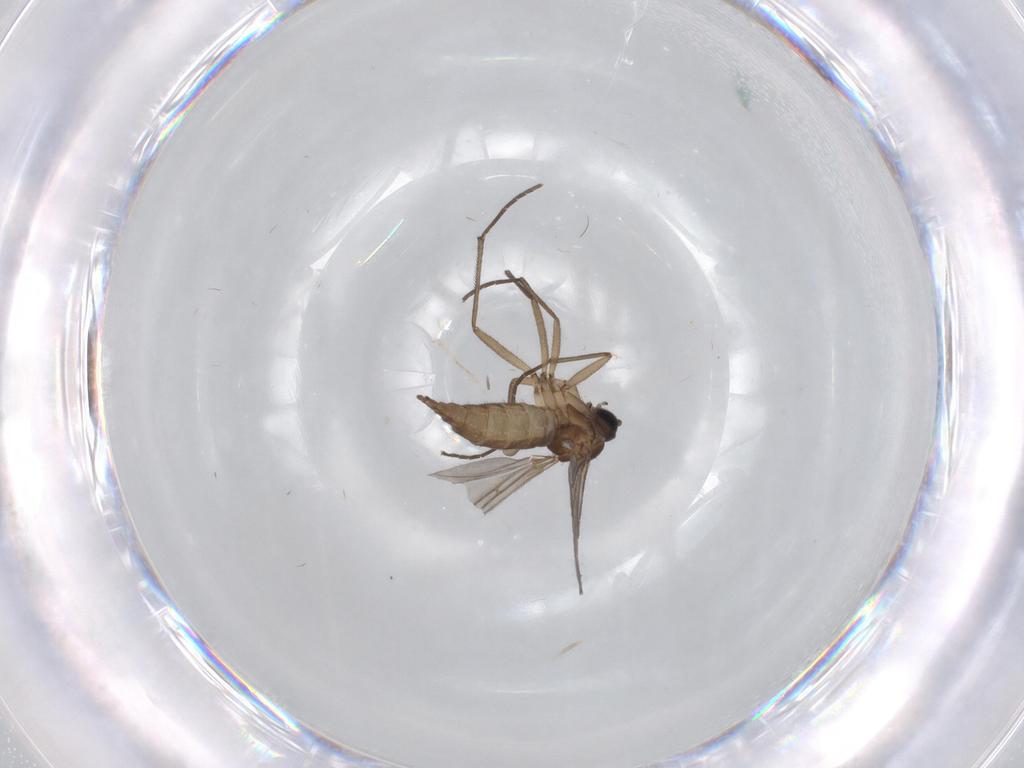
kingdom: Animalia
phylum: Arthropoda
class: Insecta
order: Diptera
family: Sciaridae
